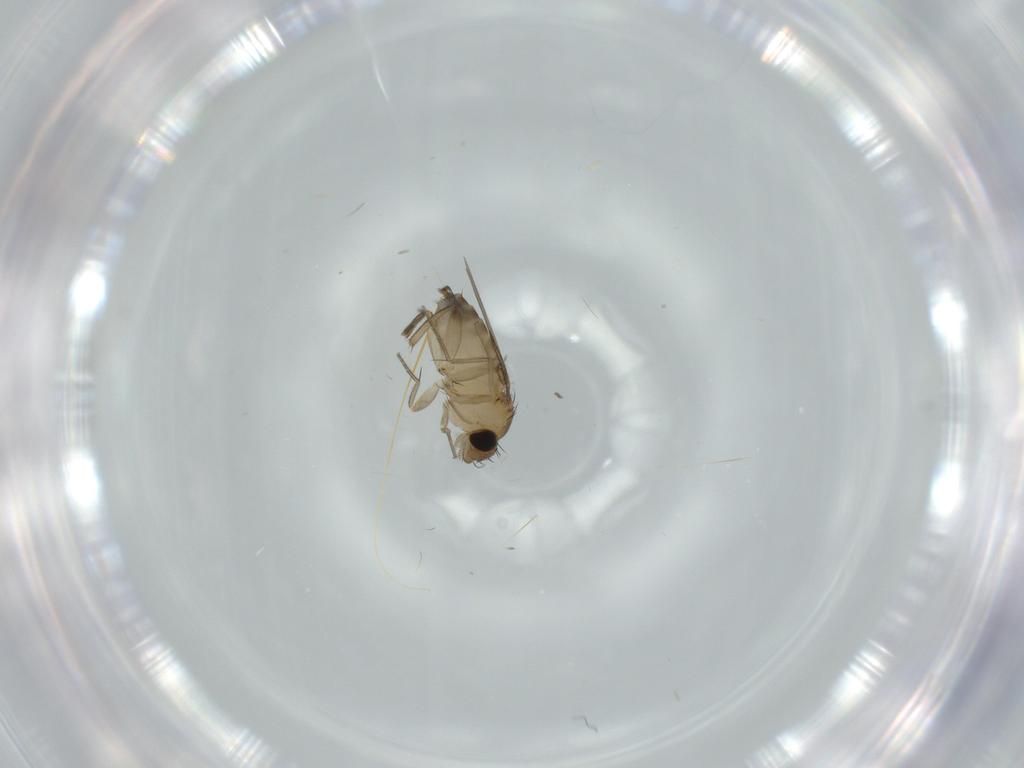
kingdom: Animalia
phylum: Arthropoda
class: Insecta
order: Diptera
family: Phoridae
